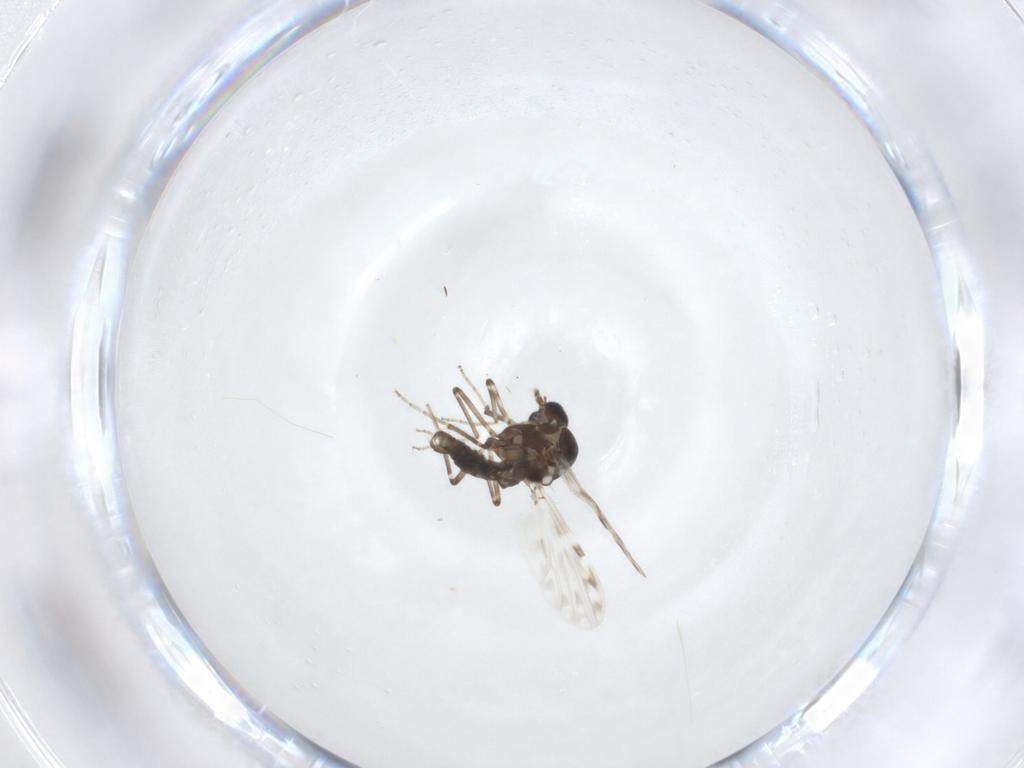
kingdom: Animalia
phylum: Arthropoda
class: Insecta
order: Diptera
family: Ceratopogonidae
